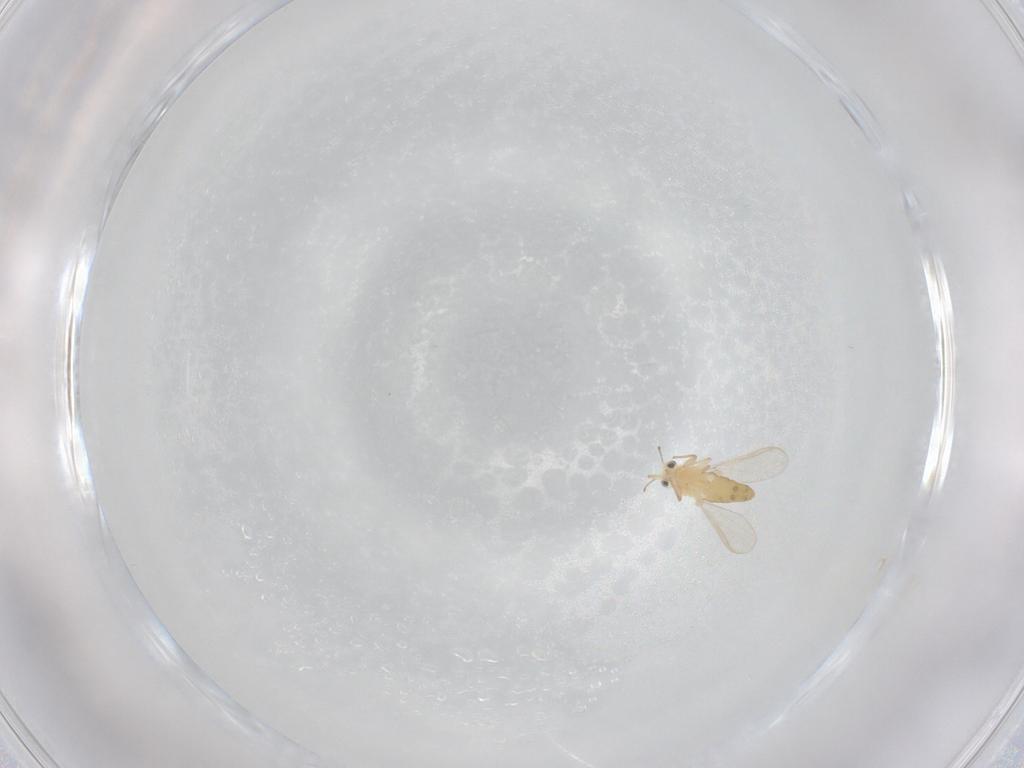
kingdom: Animalia
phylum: Arthropoda
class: Insecta
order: Diptera
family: Chironomidae
